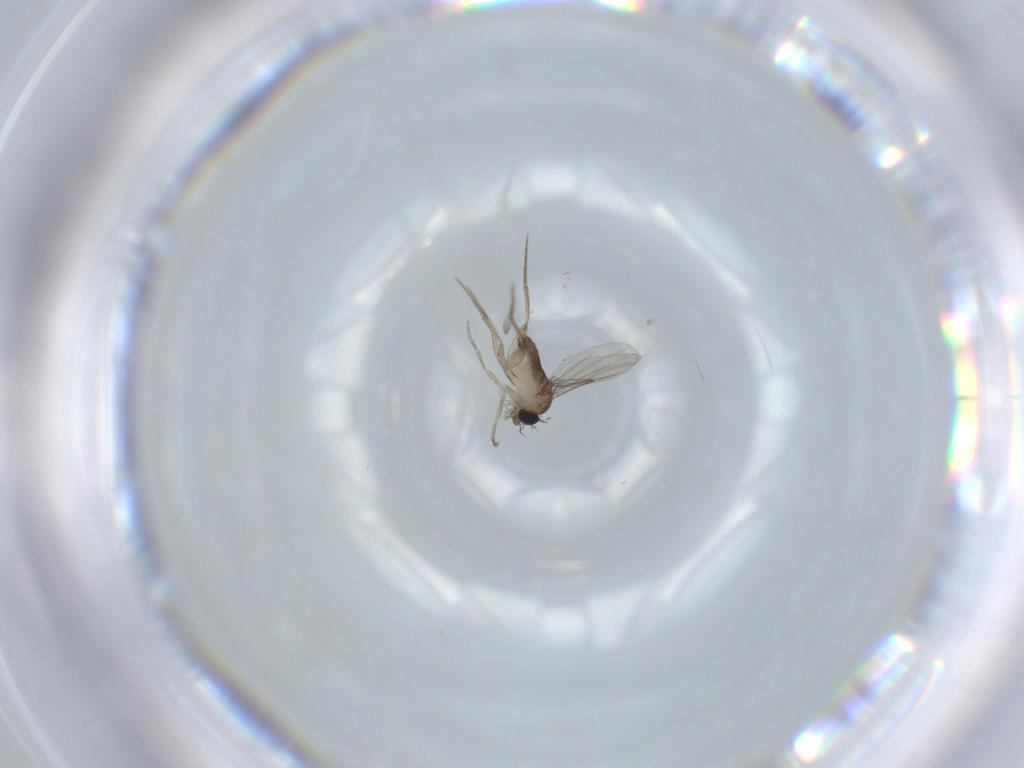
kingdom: Animalia
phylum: Arthropoda
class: Insecta
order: Diptera
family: Phoridae
